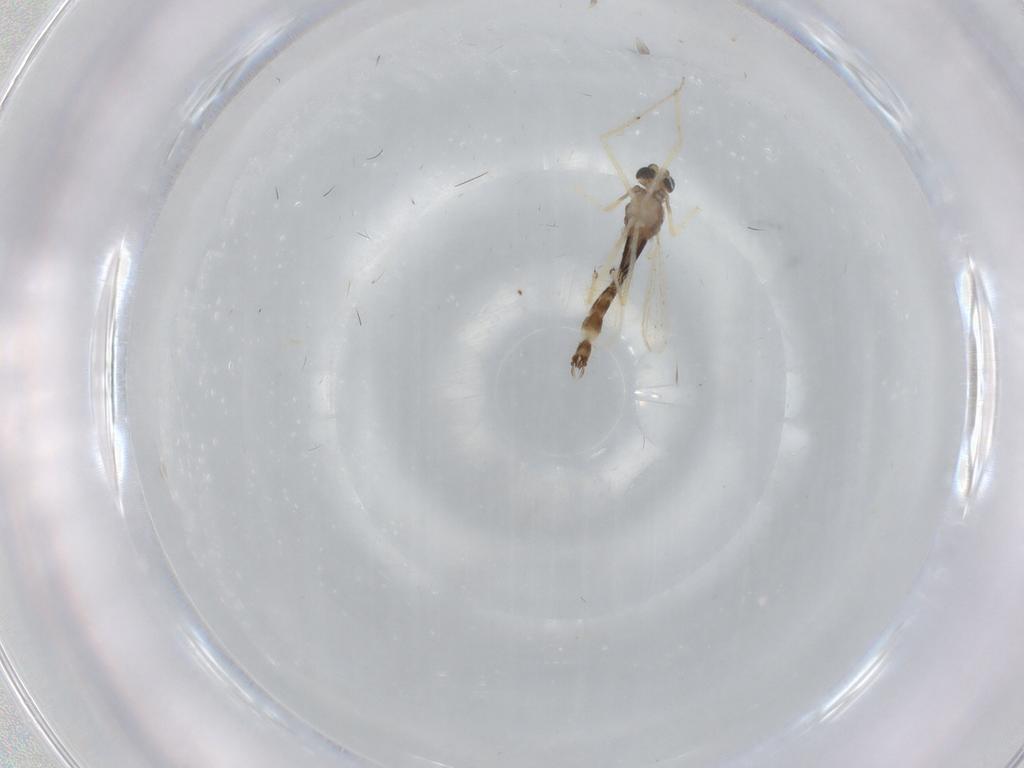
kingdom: Animalia
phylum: Arthropoda
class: Insecta
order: Diptera
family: Chironomidae
